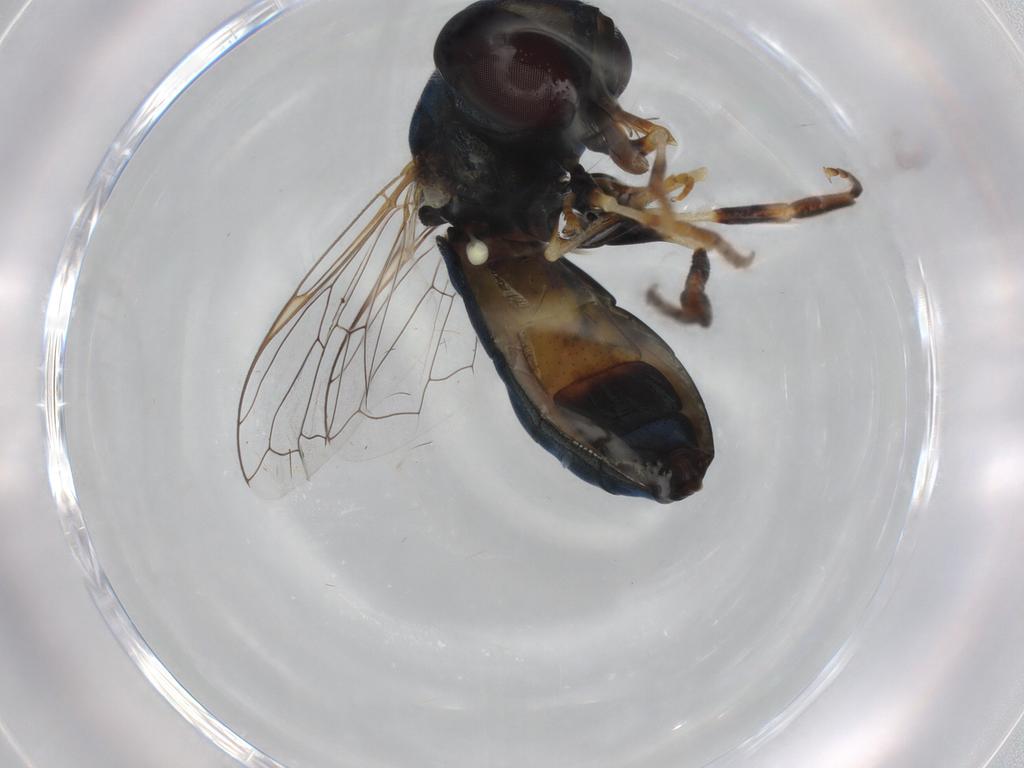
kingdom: Animalia
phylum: Arthropoda
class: Insecta
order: Diptera
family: Syrphidae
